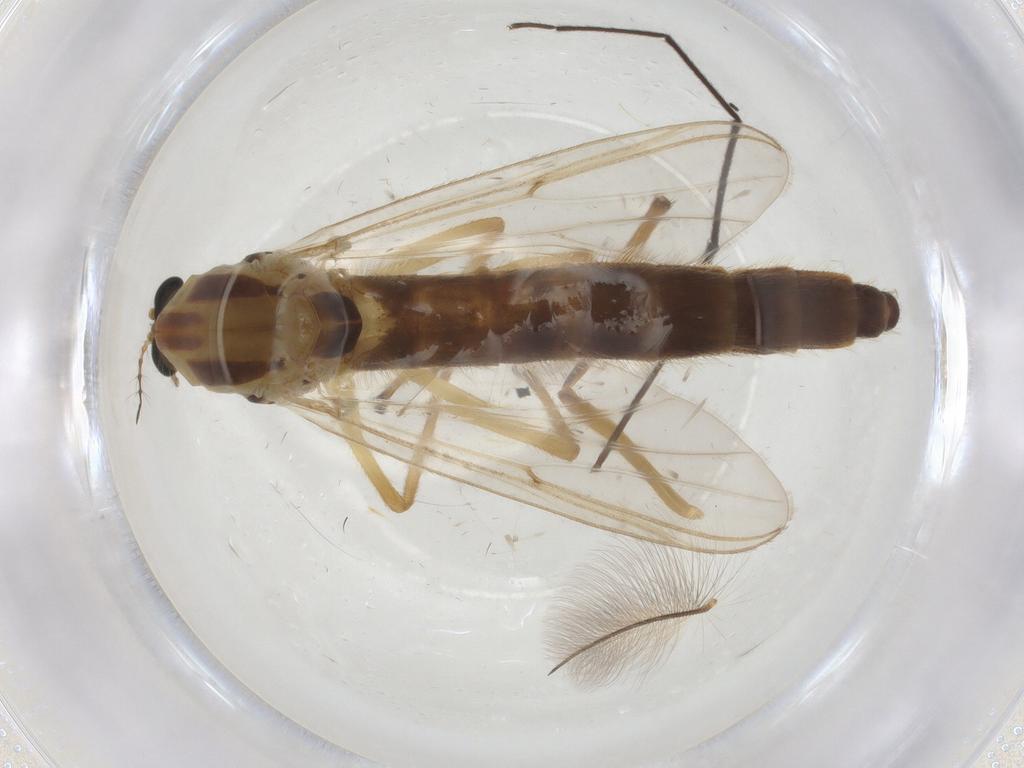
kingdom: Animalia
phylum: Arthropoda
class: Insecta
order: Diptera
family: Chironomidae
